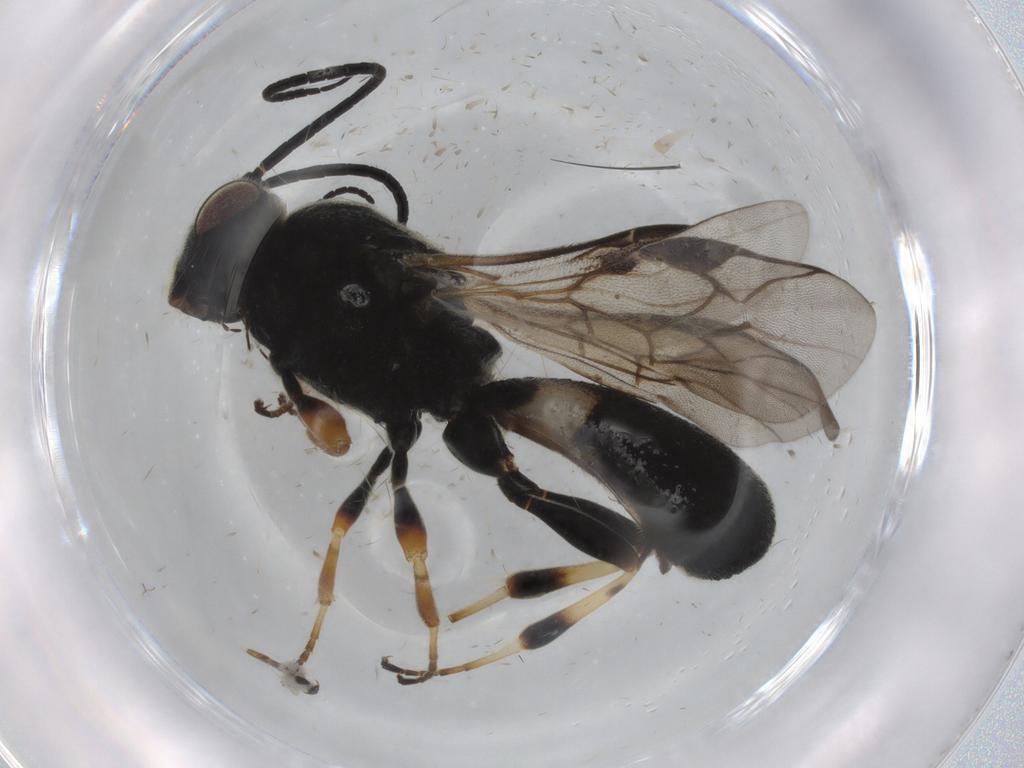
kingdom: Animalia
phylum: Arthropoda
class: Insecta
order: Hymenoptera
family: Braconidae
